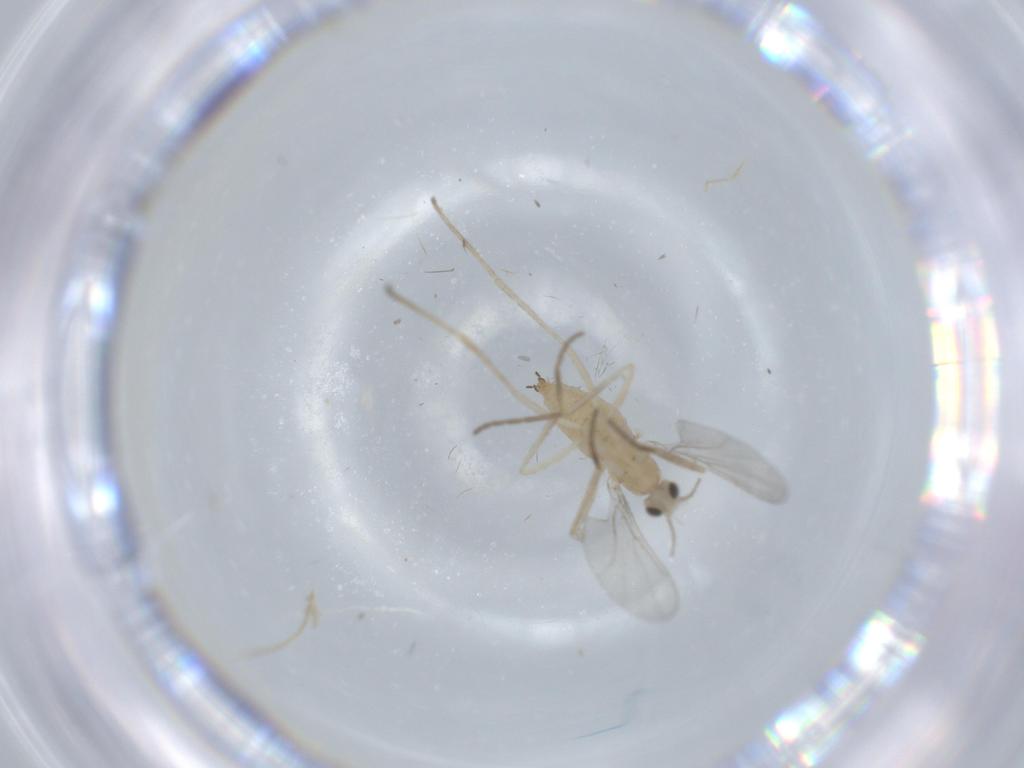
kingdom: Animalia
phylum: Arthropoda
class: Insecta
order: Diptera
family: Cecidomyiidae
